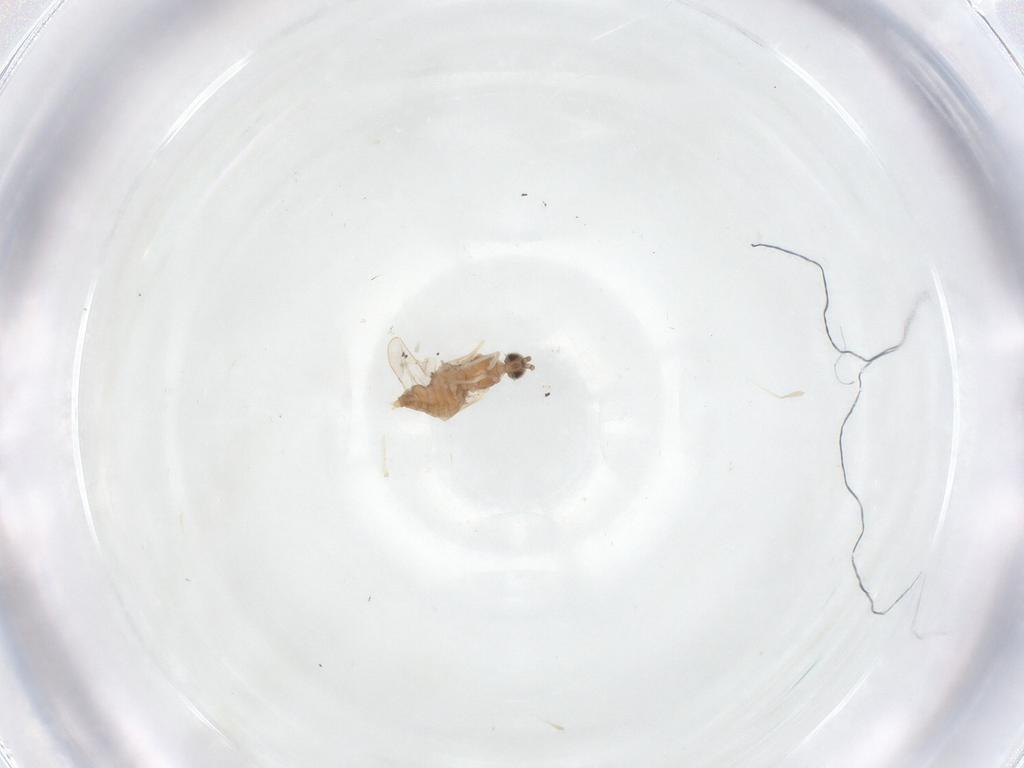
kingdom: Animalia
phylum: Arthropoda
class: Insecta
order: Diptera
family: Cecidomyiidae
